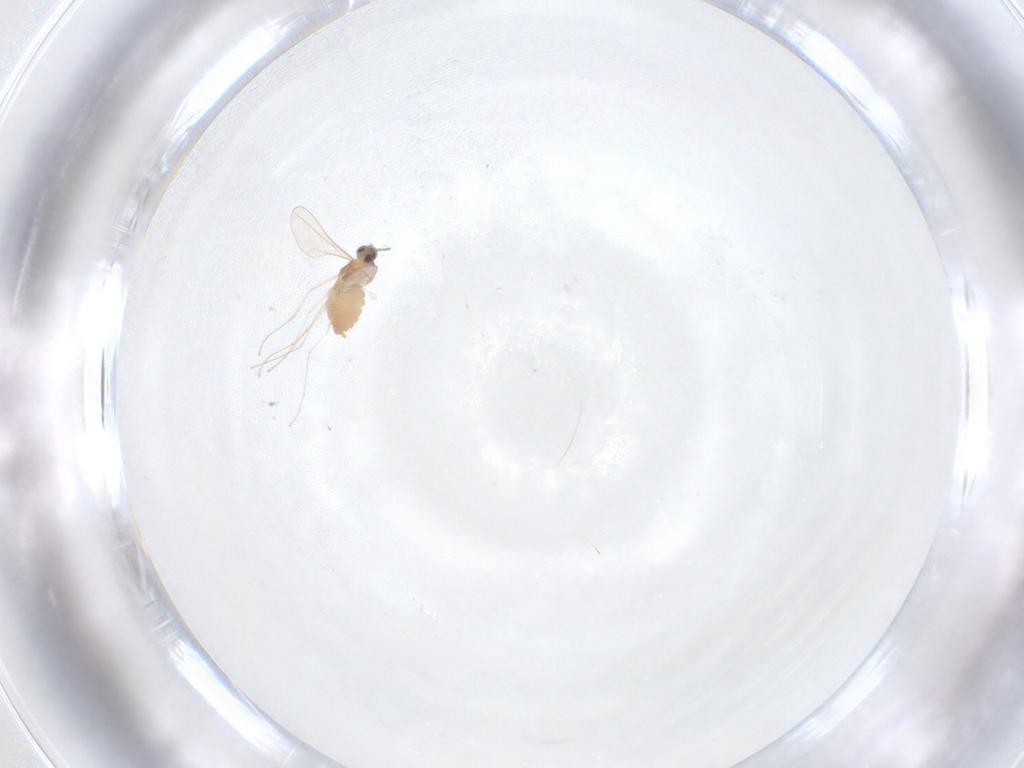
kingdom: Animalia
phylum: Arthropoda
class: Insecta
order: Diptera
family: Cecidomyiidae
